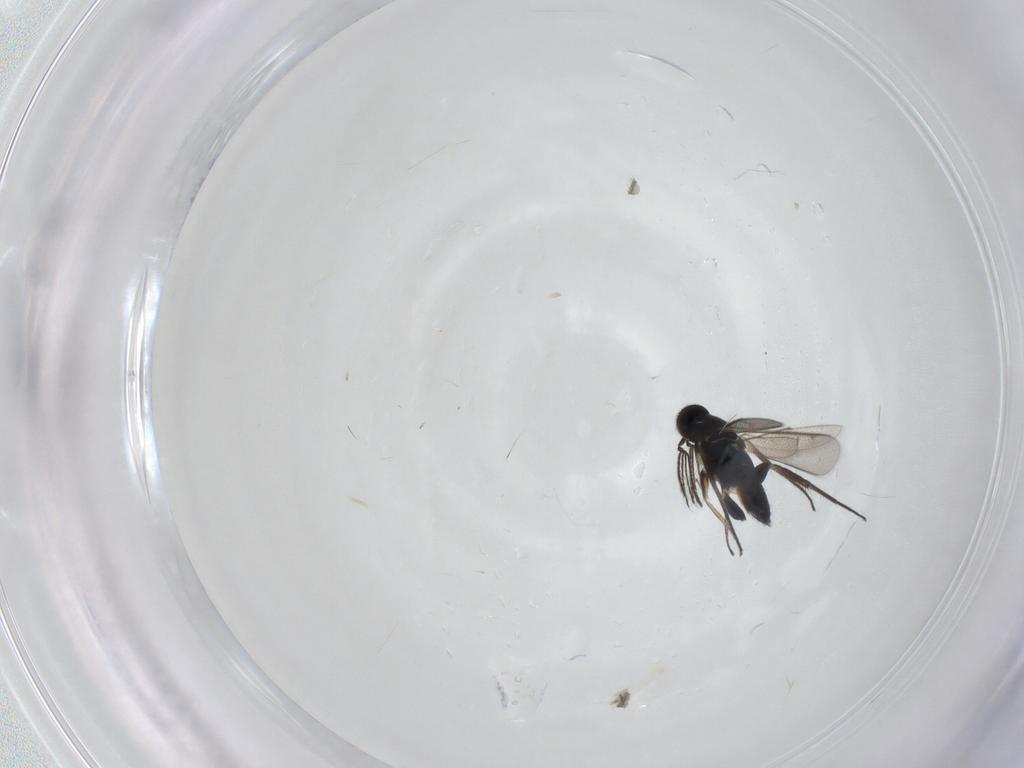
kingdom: Animalia
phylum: Arthropoda
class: Insecta
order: Hymenoptera
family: Eulophidae
